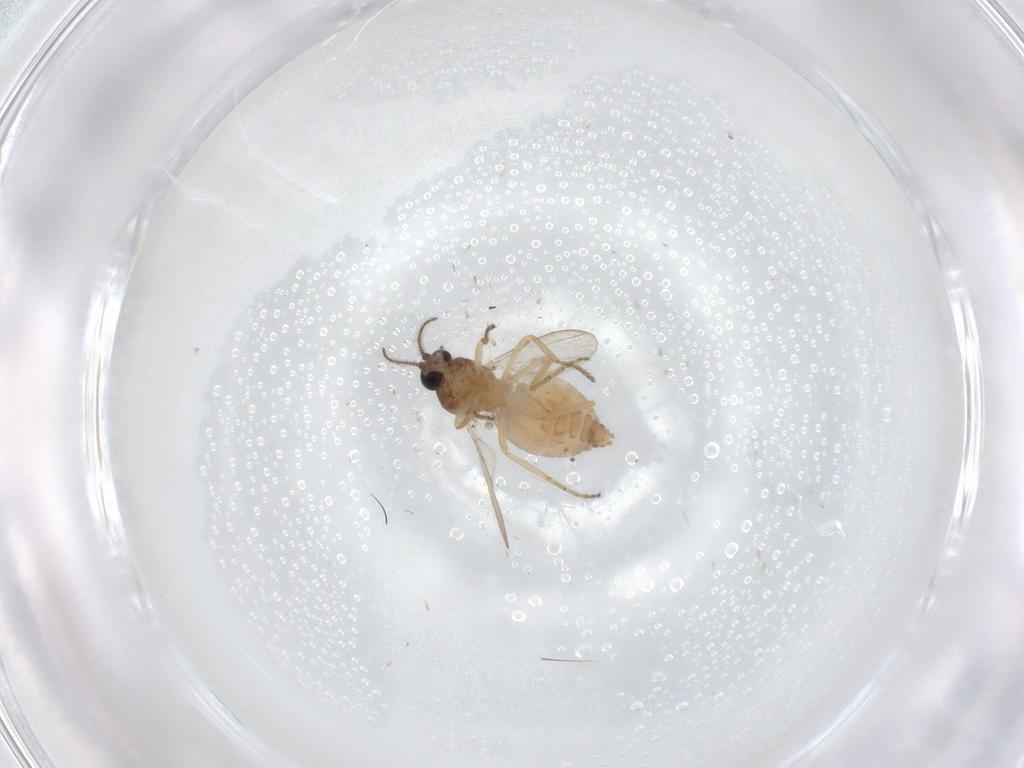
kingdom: Animalia
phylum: Arthropoda
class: Insecta
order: Diptera
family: Ceratopogonidae
